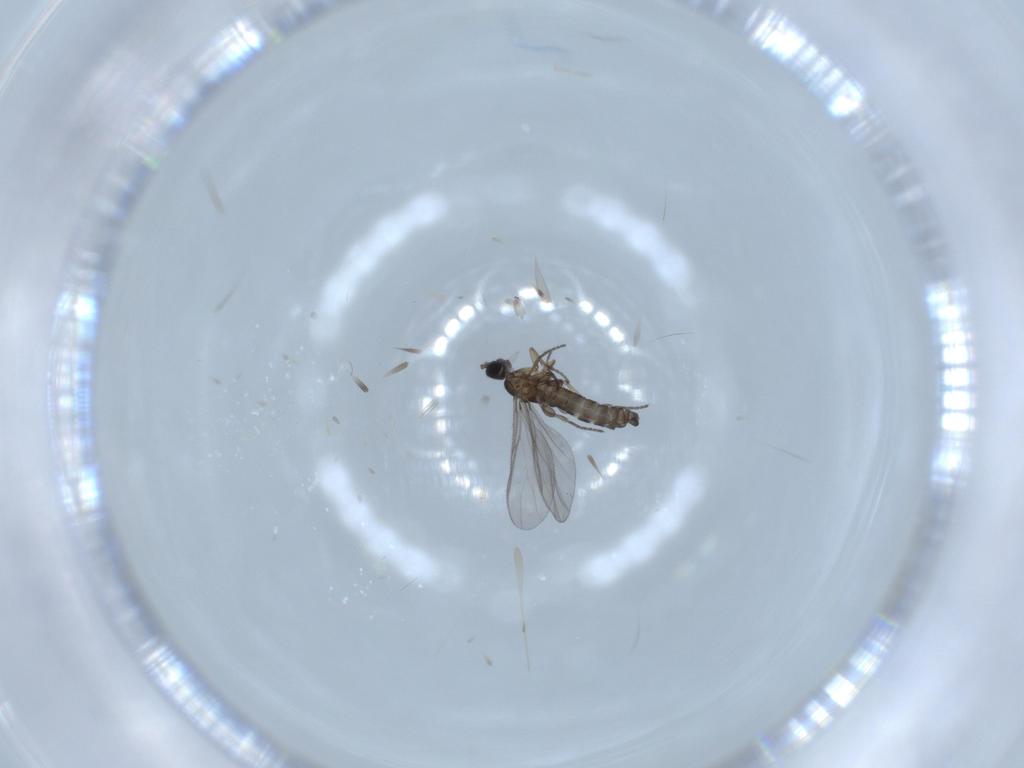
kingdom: Animalia
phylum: Arthropoda
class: Insecta
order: Diptera
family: Sciaridae
